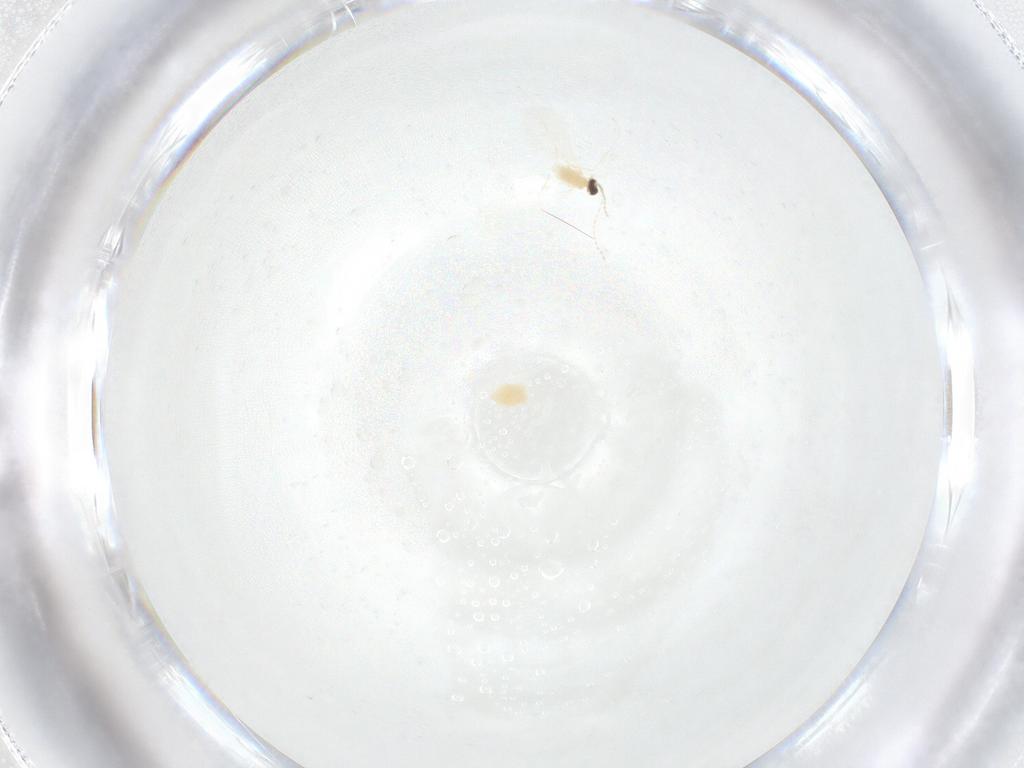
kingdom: Animalia
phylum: Arthropoda
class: Insecta
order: Diptera
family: Cecidomyiidae
